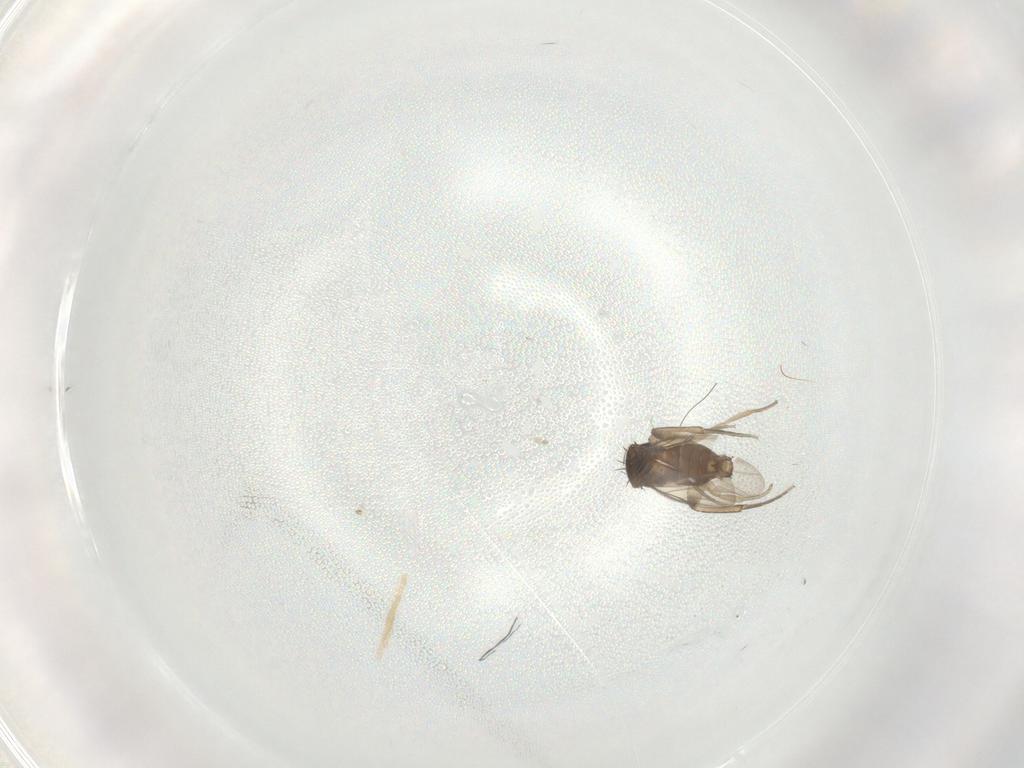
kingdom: Animalia
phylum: Arthropoda
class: Insecta
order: Diptera
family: Phoridae
